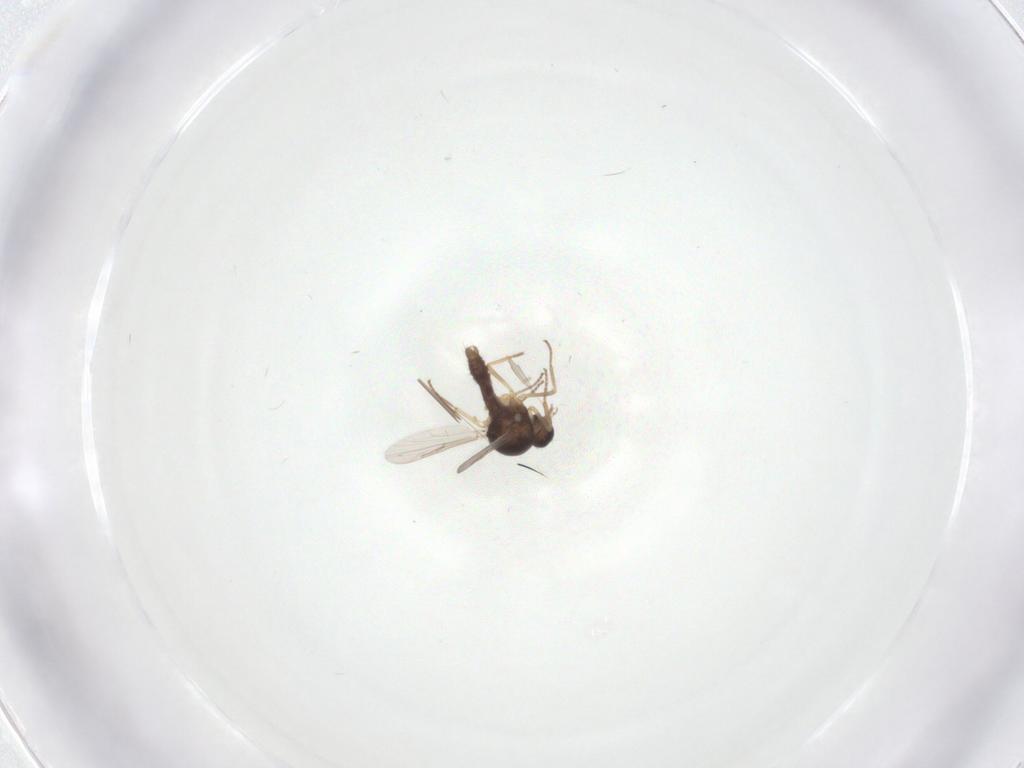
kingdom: Animalia
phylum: Arthropoda
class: Insecta
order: Diptera
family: Ceratopogonidae
